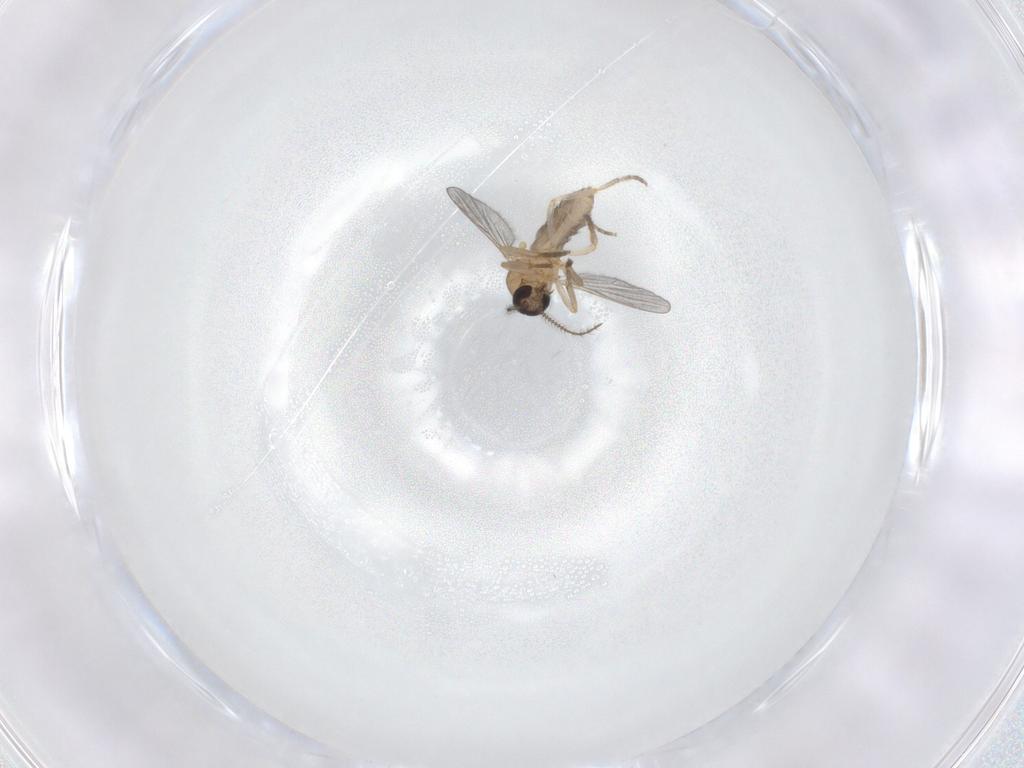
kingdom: Animalia
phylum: Arthropoda
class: Insecta
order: Diptera
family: Ceratopogonidae
